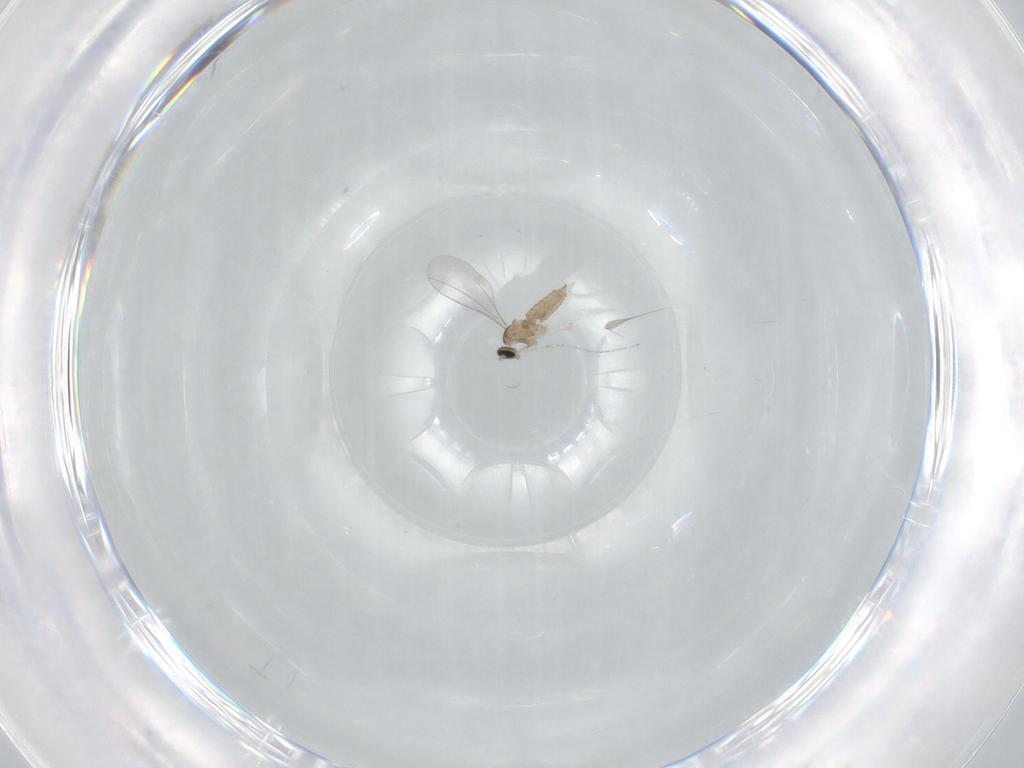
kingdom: Animalia
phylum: Arthropoda
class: Insecta
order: Diptera
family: Cecidomyiidae
